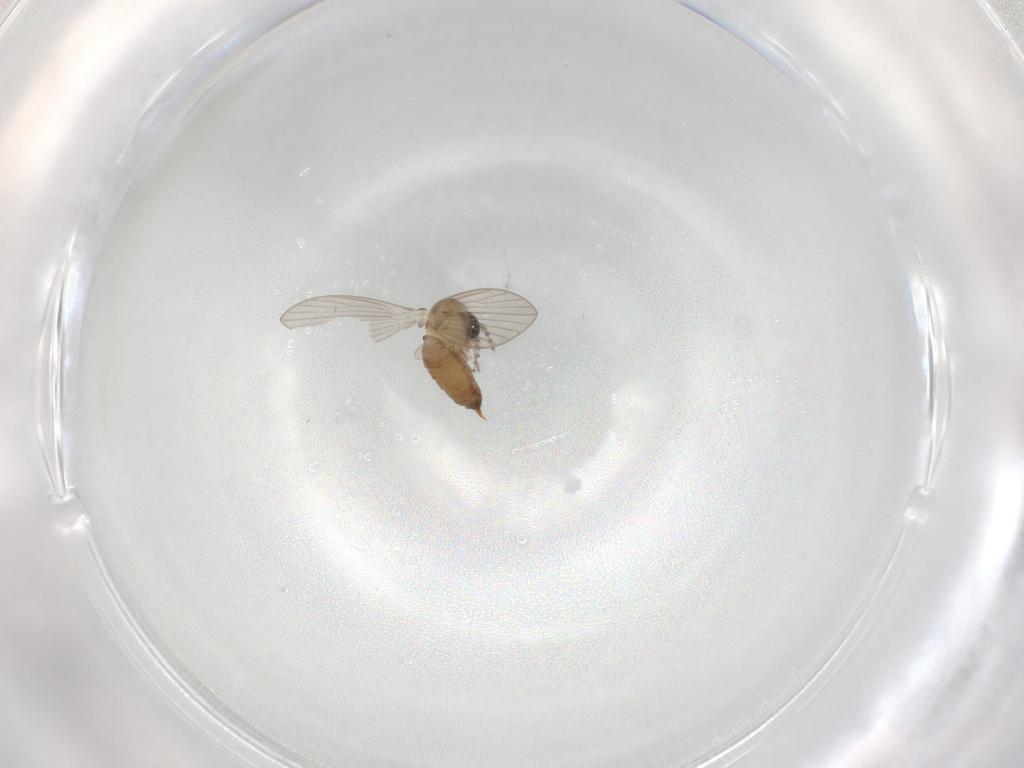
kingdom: Animalia
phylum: Arthropoda
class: Insecta
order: Diptera
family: Psychodidae
